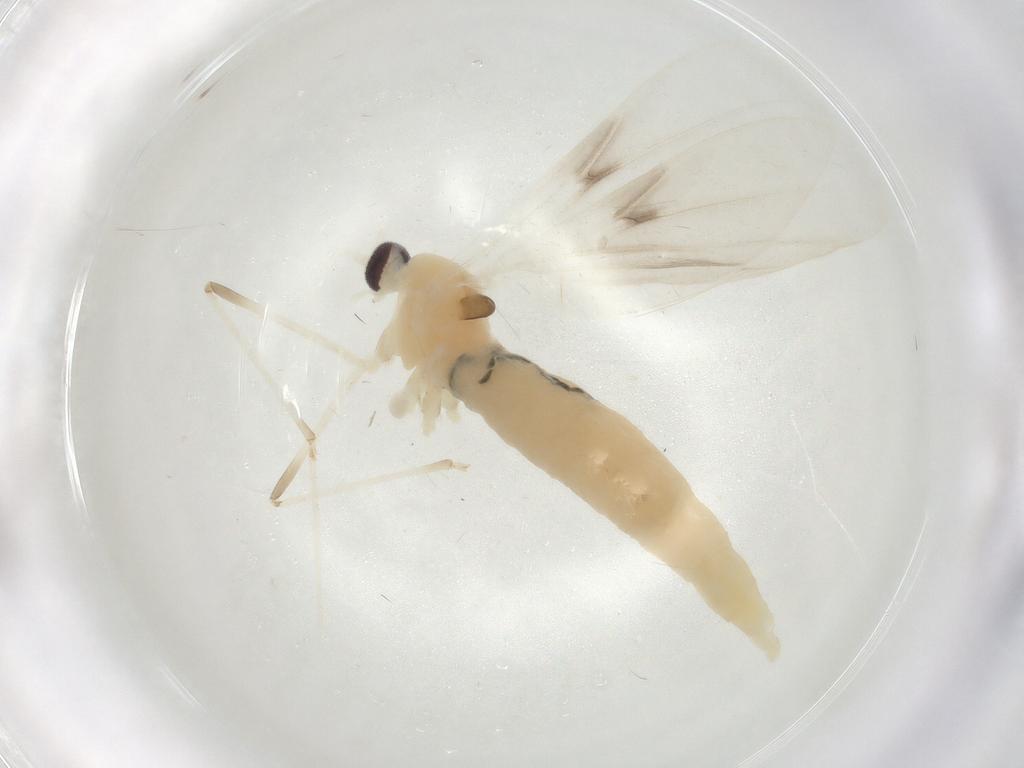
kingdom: Animalia
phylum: Arthropoda
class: Insecta
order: Diptera
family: Cecidomyiidae
